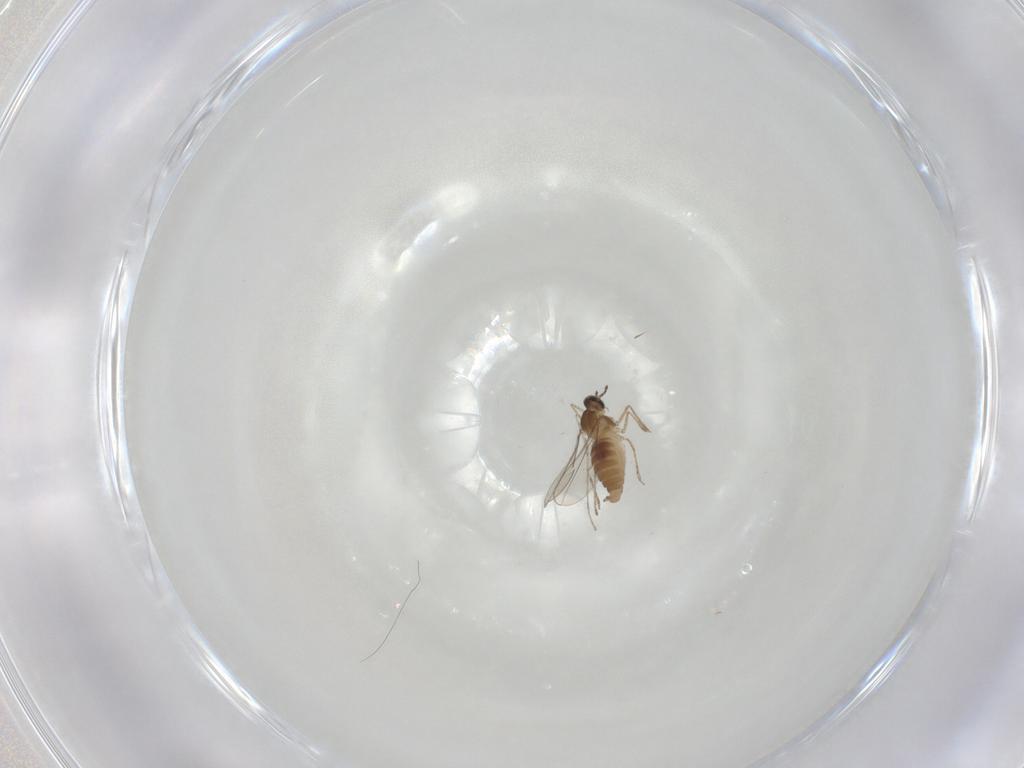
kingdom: Animalia
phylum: Arthropoda
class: Insecta
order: Diptera
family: Cecidomyiidae
